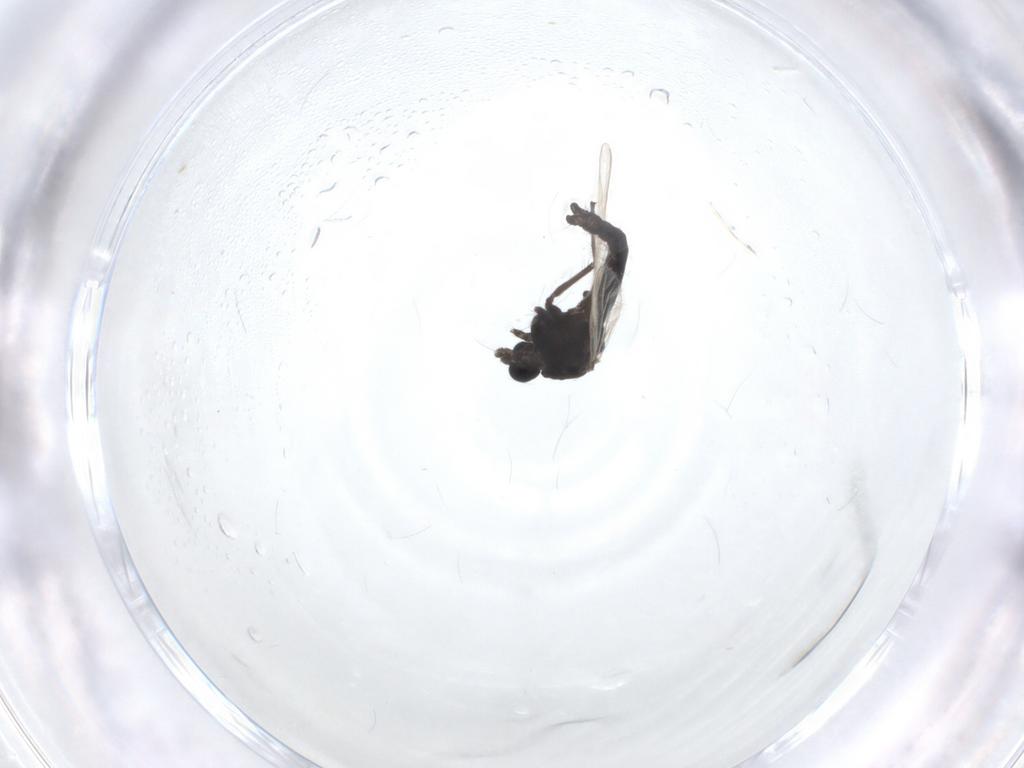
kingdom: Animalia
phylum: Arthropoda
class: Insecta
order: Diptera
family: Chironomidae
